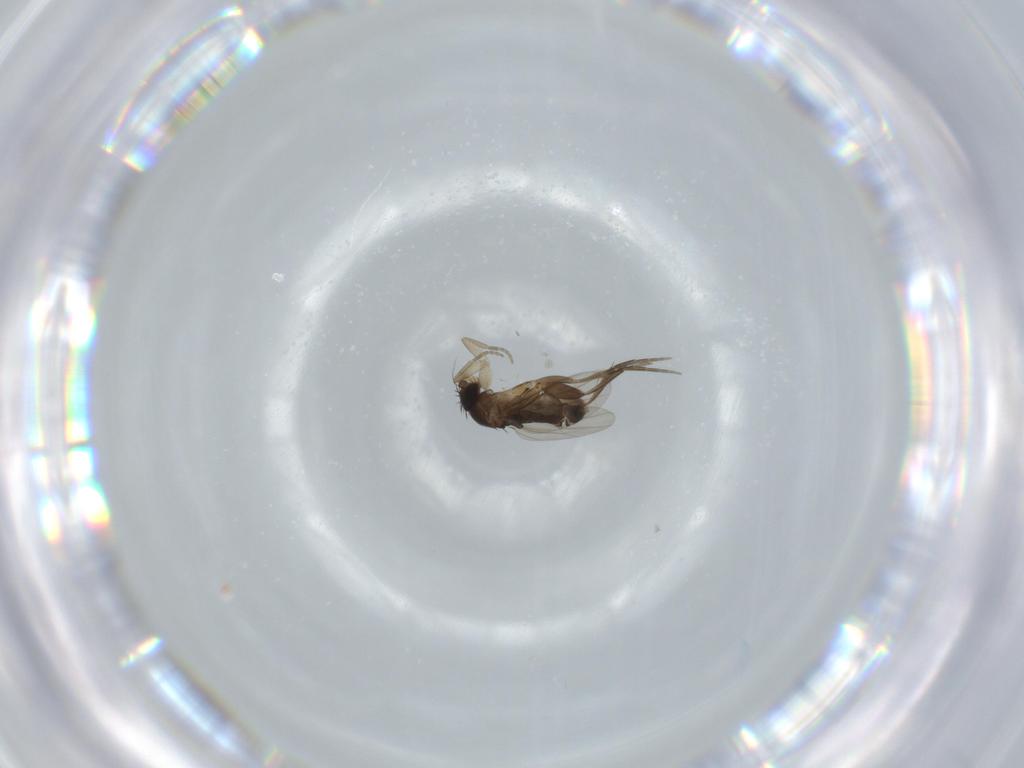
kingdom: Animalia
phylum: Arthropoda
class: Insecta
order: Diptera
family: Phoridae
